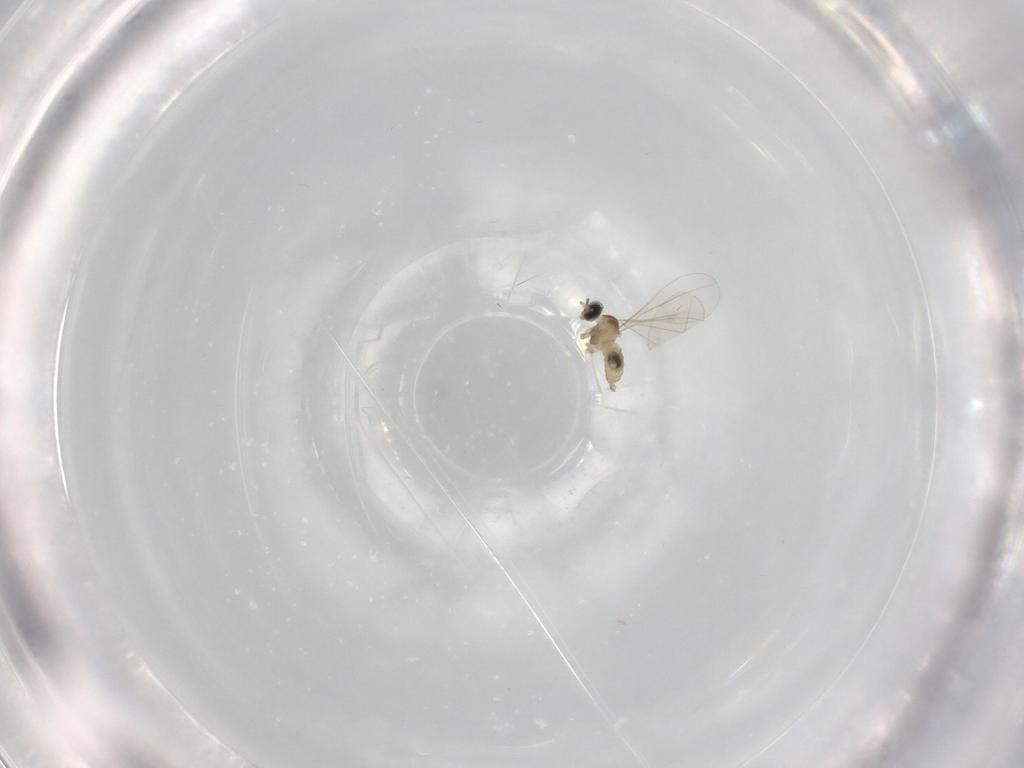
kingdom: Animalia
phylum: Arthropoda
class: Insecta
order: Diptera
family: Cecidomyiidae
